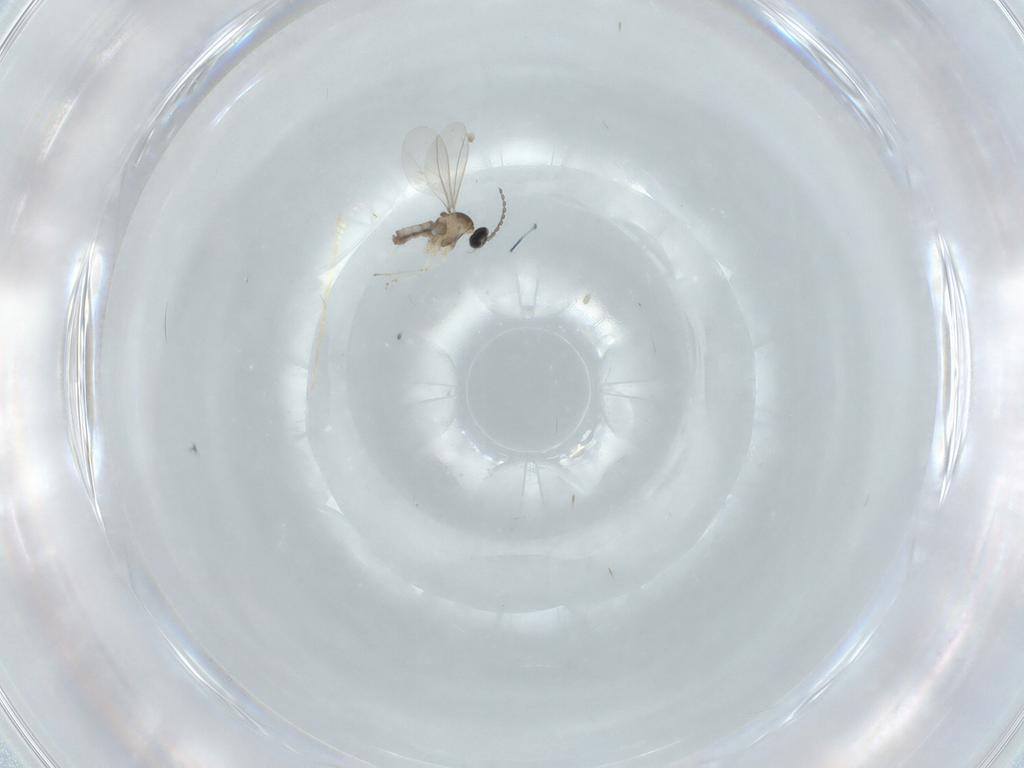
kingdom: Animalia
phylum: Arthropoda
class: Insecta
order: Diptera
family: Cecidomyiidae
